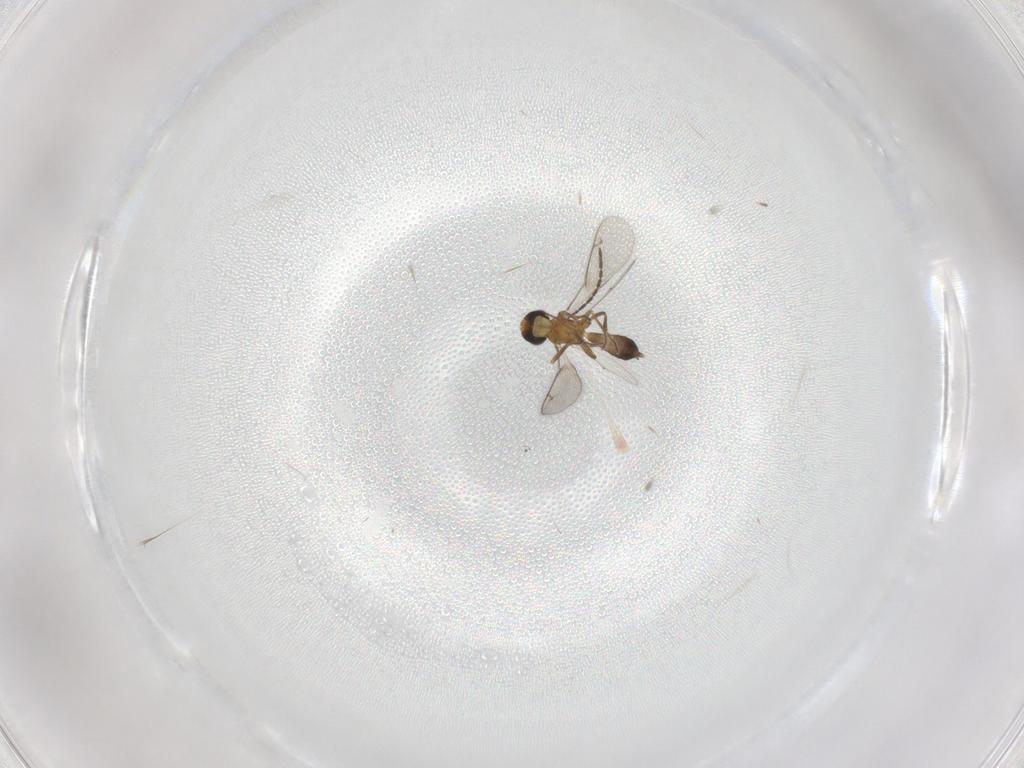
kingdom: Animalia
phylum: Arthropoda
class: Insecta
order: Hymenoptera
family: Eupelmidae
